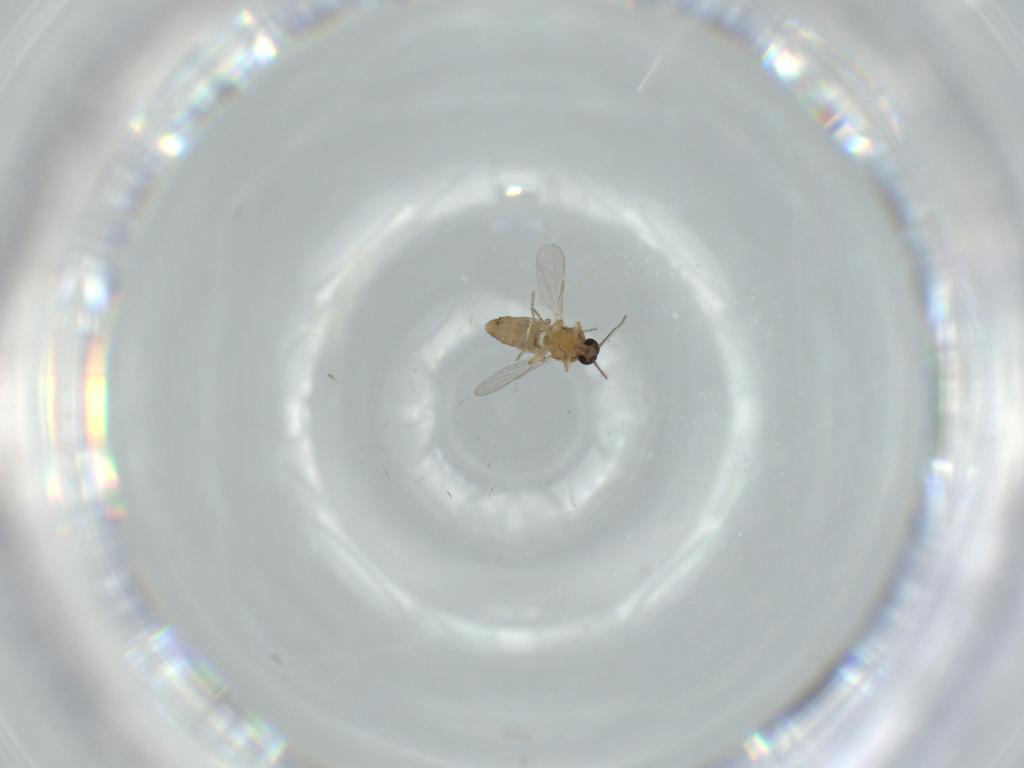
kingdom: Animalia
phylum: Arthropoda
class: Insecta
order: Diptera
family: Ceratopogonidae
